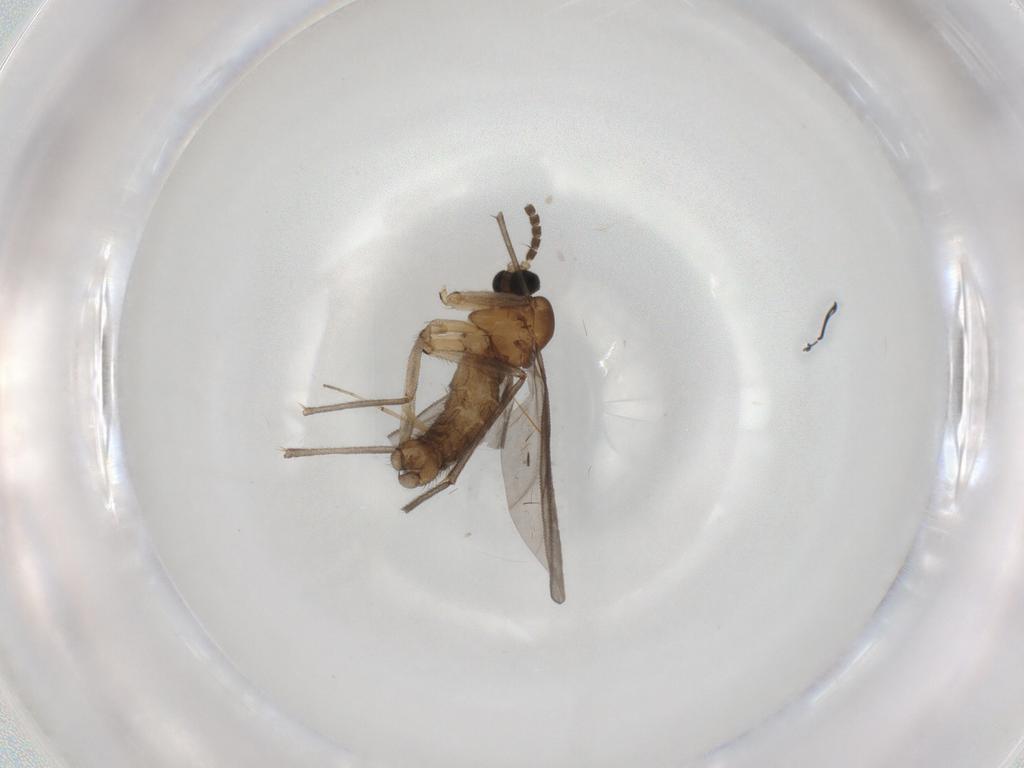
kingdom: Animalia
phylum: Arthropoda
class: Insecta
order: Diptera
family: Sciaridae
